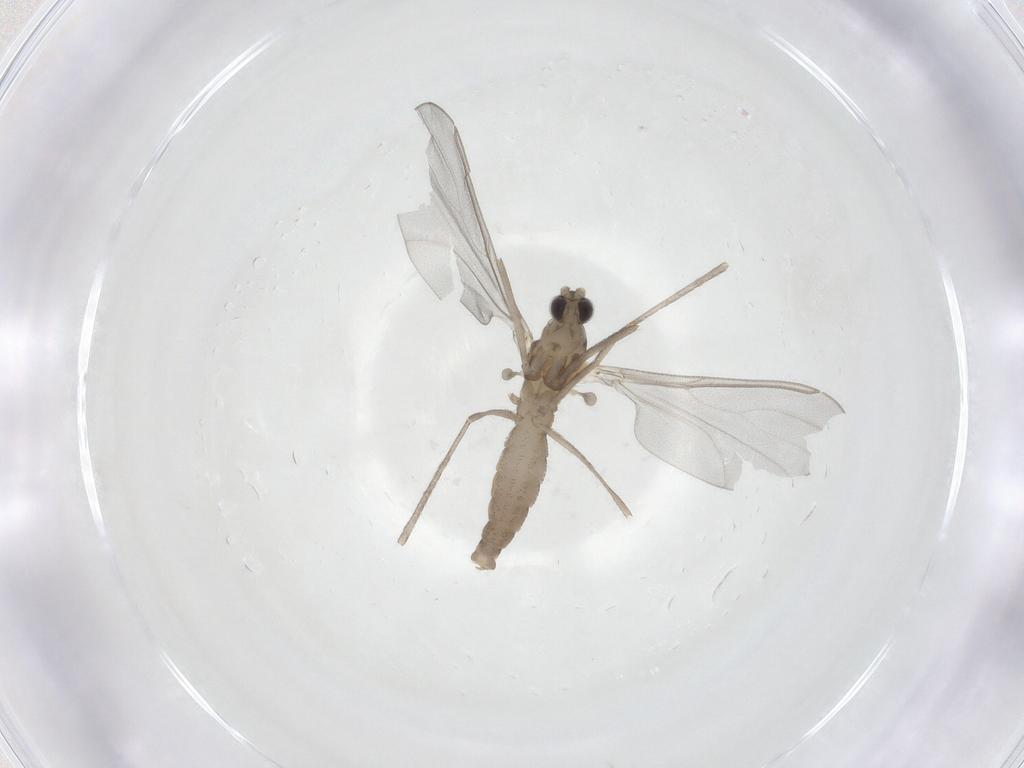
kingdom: Animalia
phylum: Arthropoda
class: Insecta
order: Diptera
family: Cecidomyiidae
